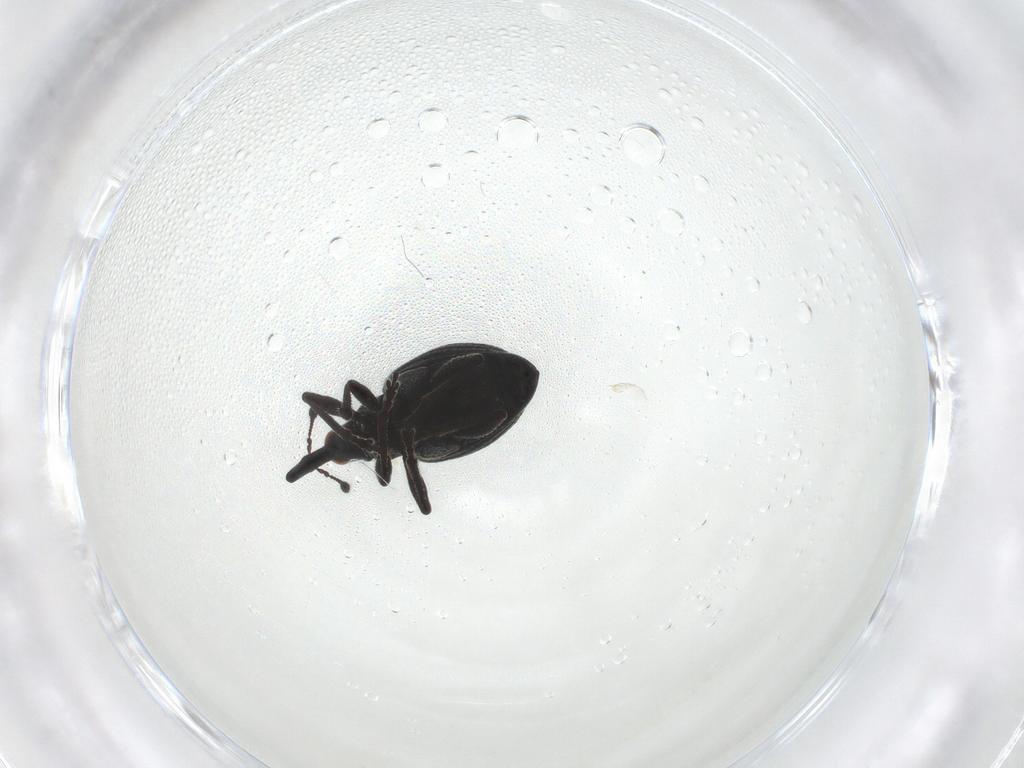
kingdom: Animalia
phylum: Arthropoda
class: Insecta
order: Coleoptera
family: Brentidae
